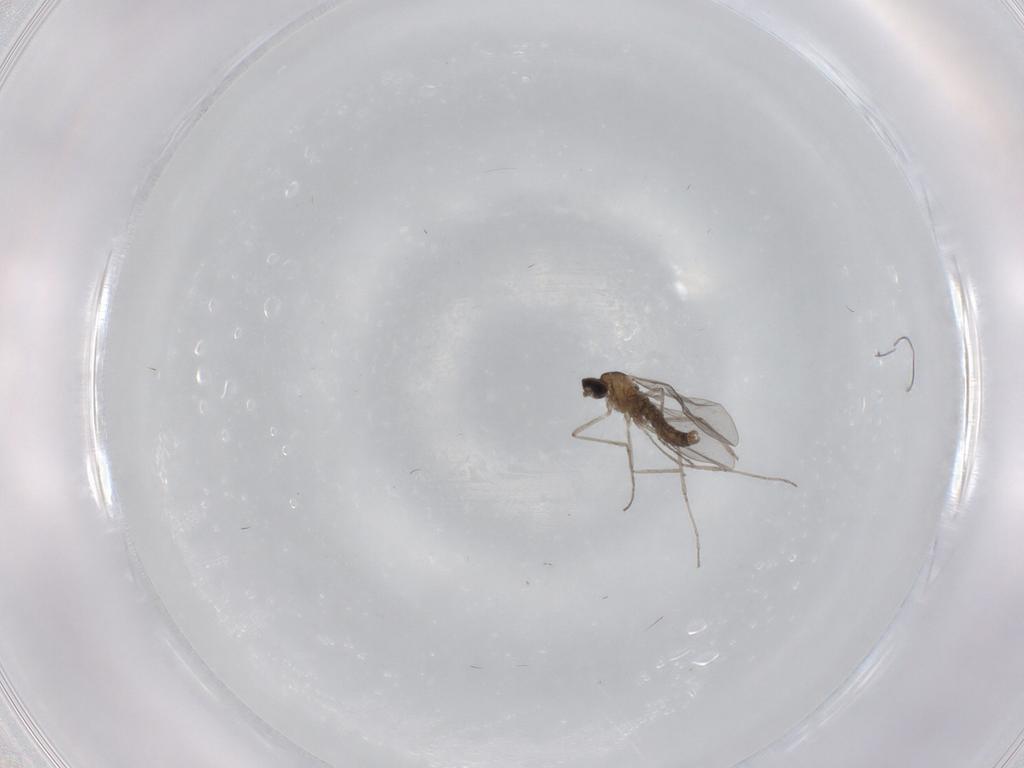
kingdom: Animalia
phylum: Arthropoda
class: Insecta
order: Diptera
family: Chironomidae
